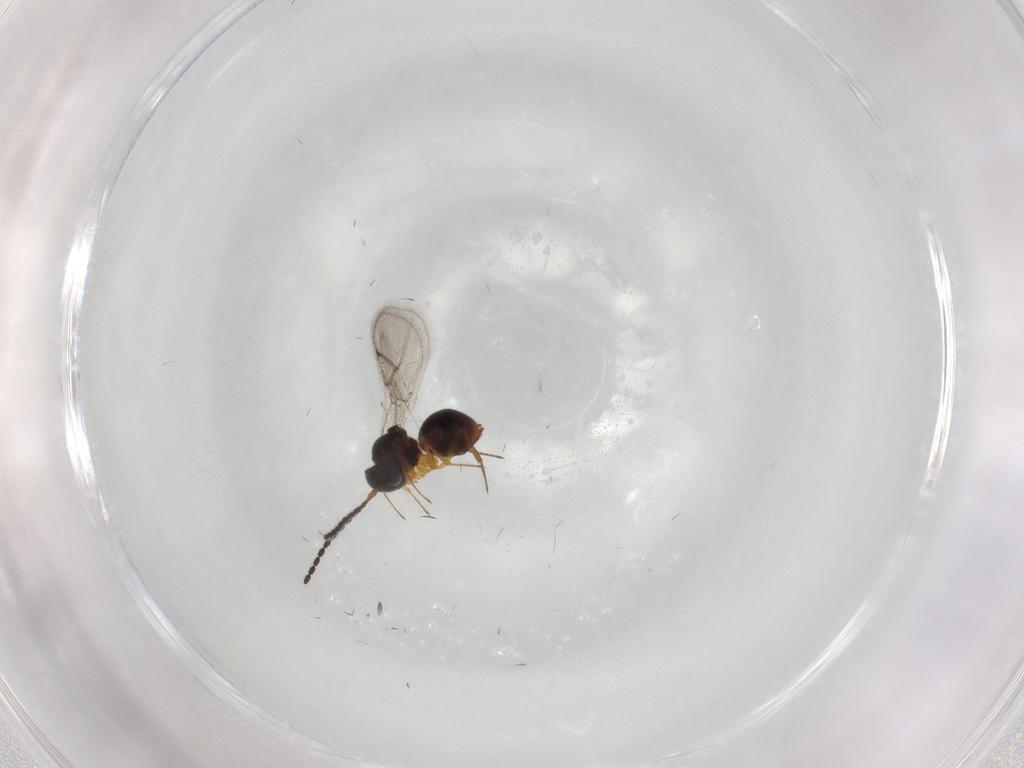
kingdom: Animalia
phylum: Arthropoda
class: Insecta
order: Hymenoptera
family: Figitidae
